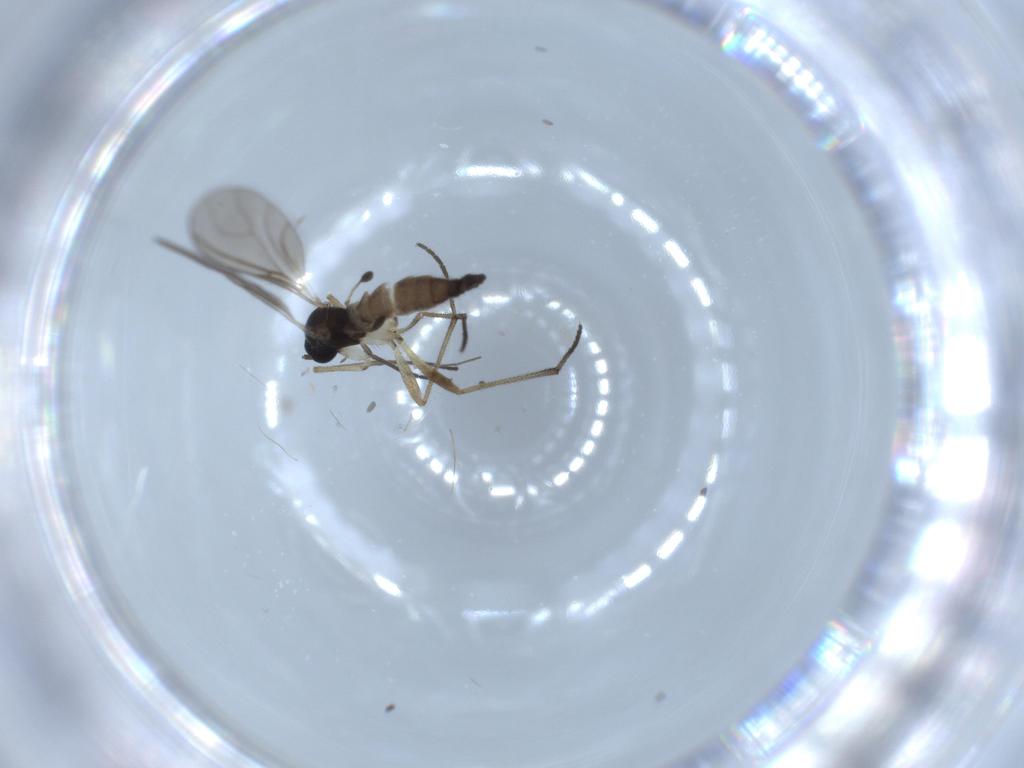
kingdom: Animalia
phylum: Arthropoda
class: Insecta
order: Diptera
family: Sciaridae
